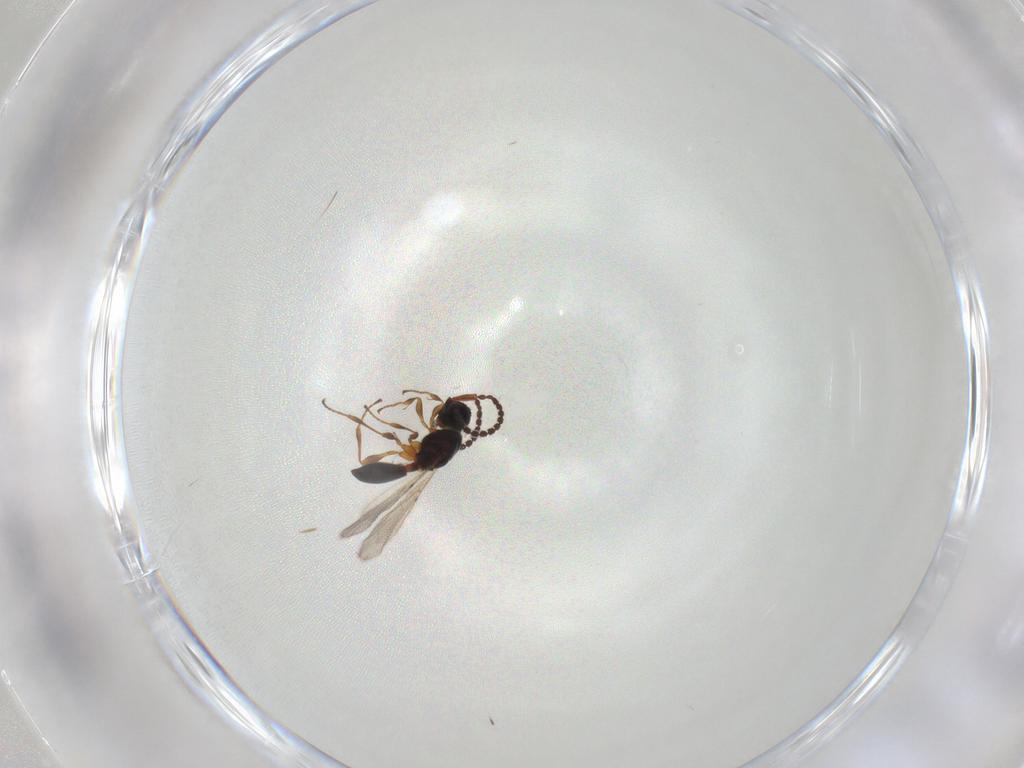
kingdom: Animalia
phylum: Arthropoda
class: Insecta
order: Hymenoptera
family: Diapriidae
